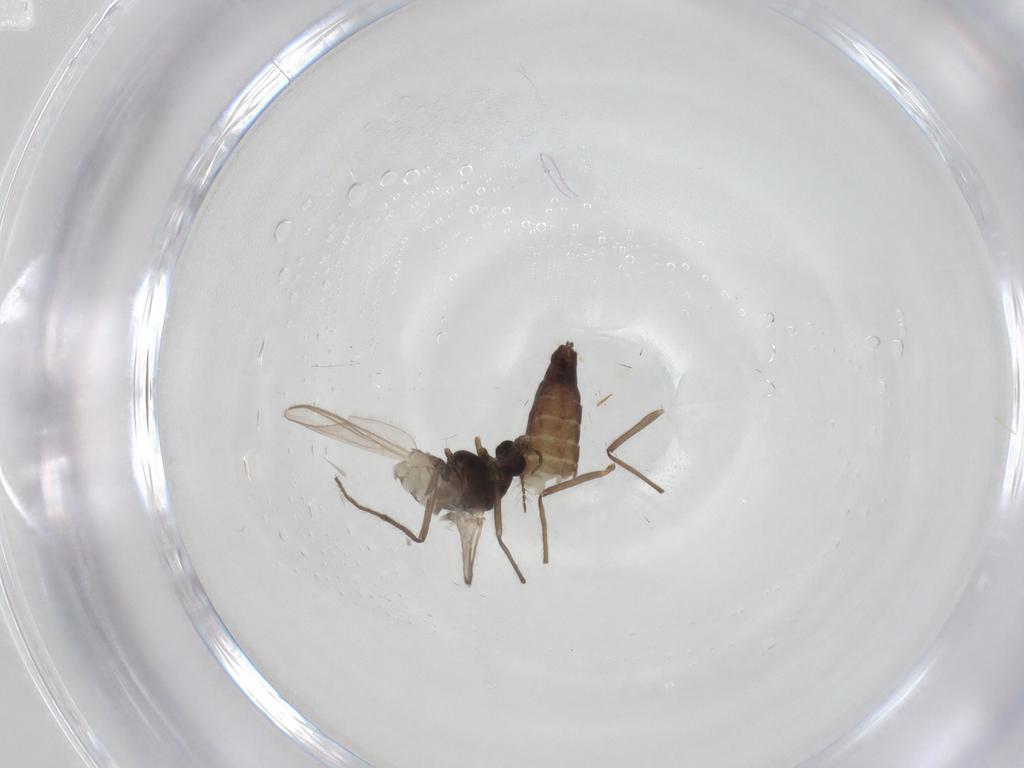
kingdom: Animalia
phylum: Arthropoda
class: Insecta
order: Diptera
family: Chironomidae
